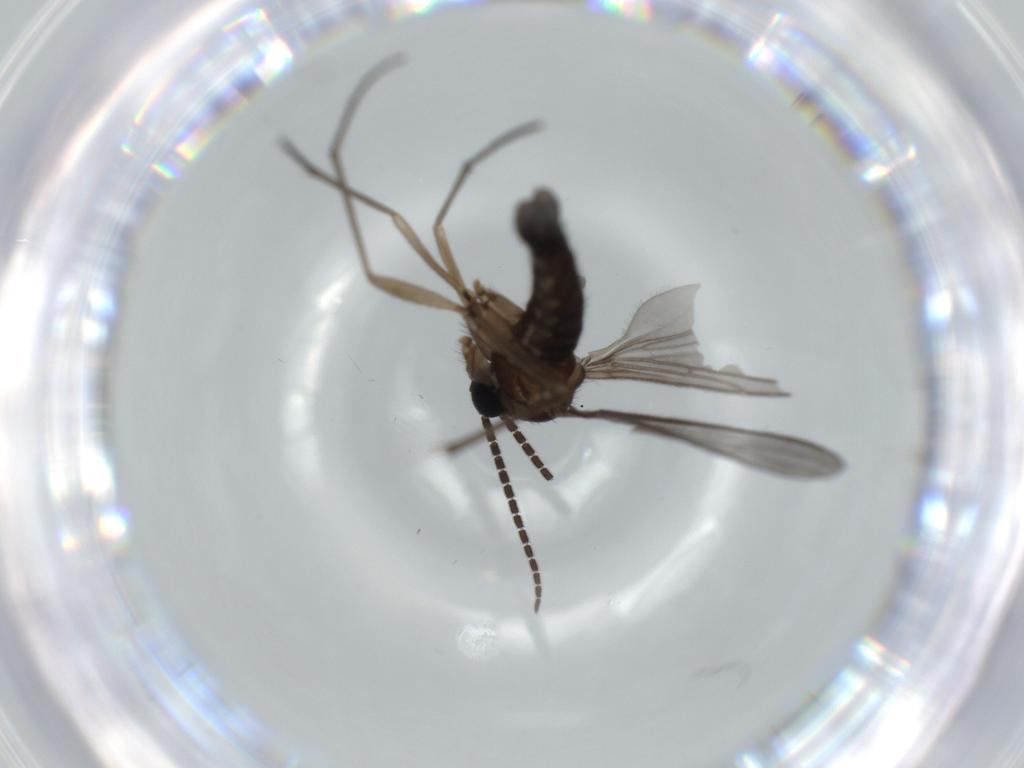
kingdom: Animalia
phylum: Arthropoda
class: Insecta
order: Diptera
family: Sciaridae
